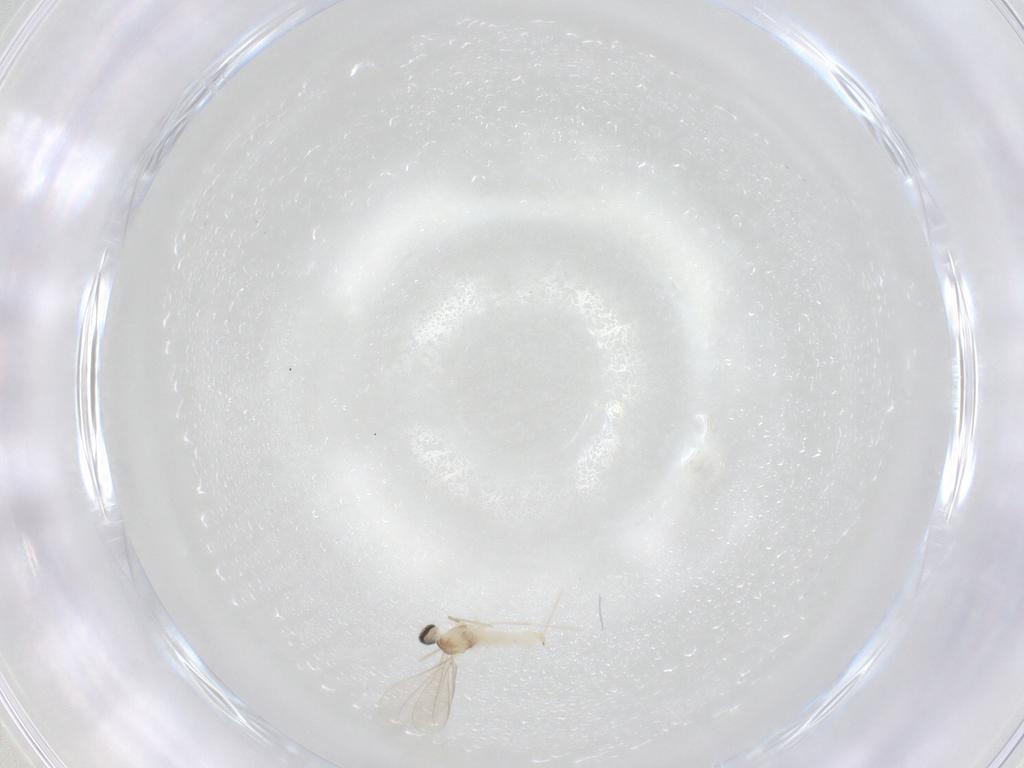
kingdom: Animalia
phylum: Arthropoda
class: Insecta
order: Diptera
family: Cecidomyiidae
